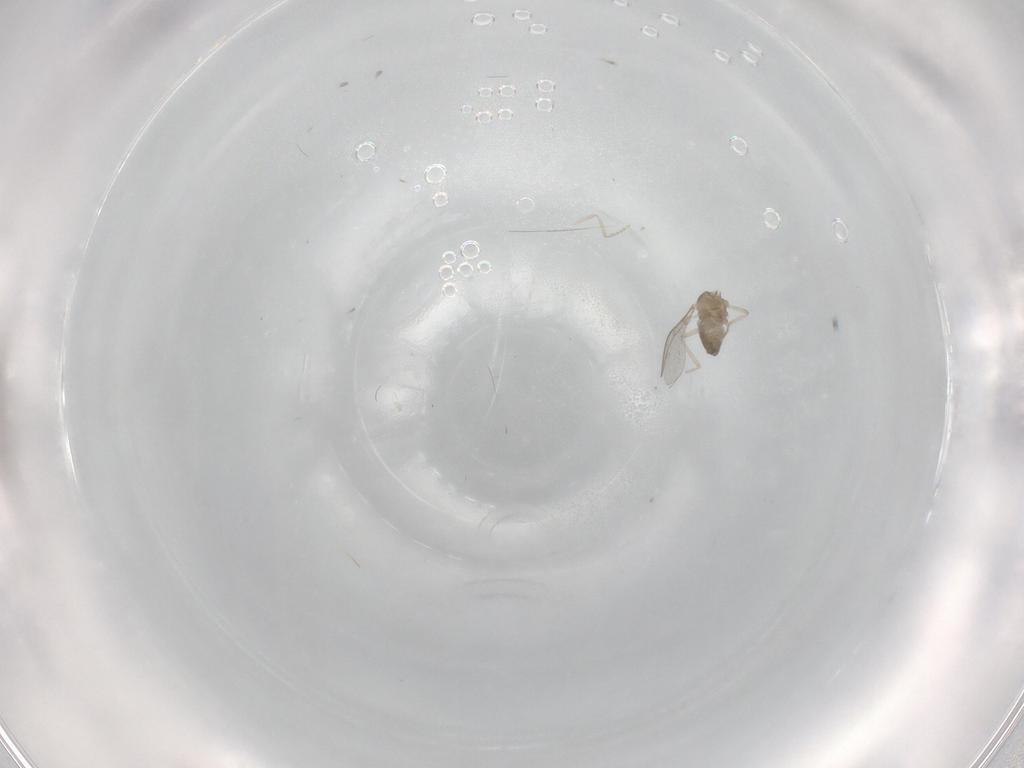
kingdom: Animalia
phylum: Arthropoda
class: Insecta
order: Diptera
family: Cecidomyiidae
